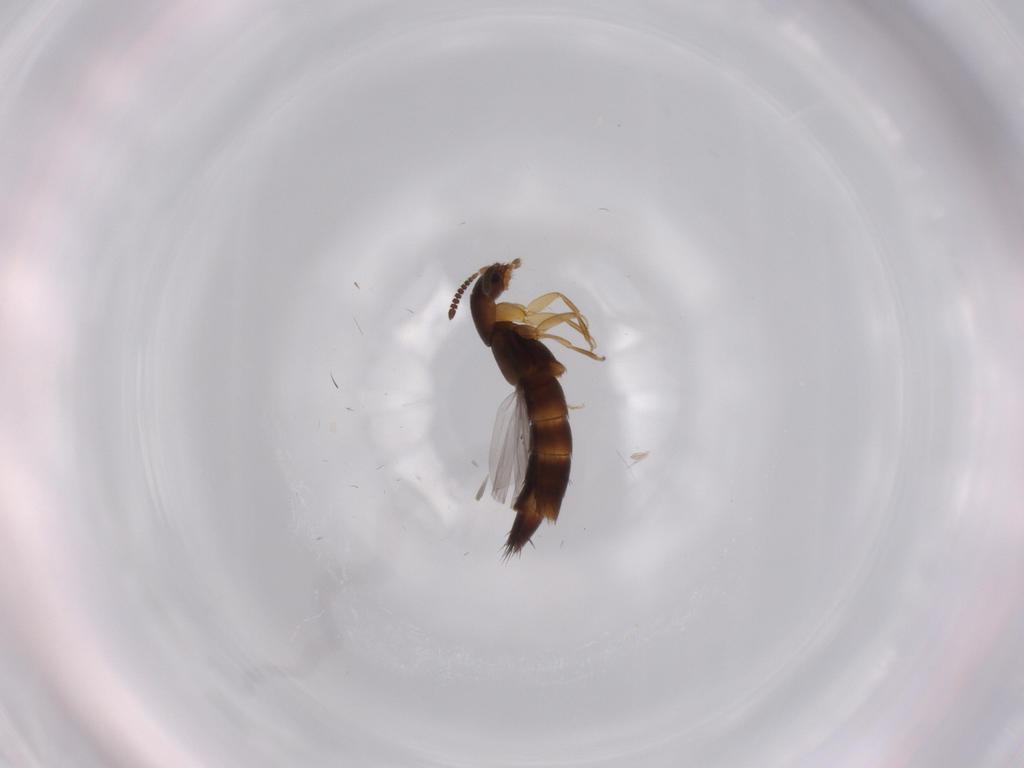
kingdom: Animalia
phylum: Arthropoda
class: Insecta
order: Coleoptera
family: Staphylinidae
